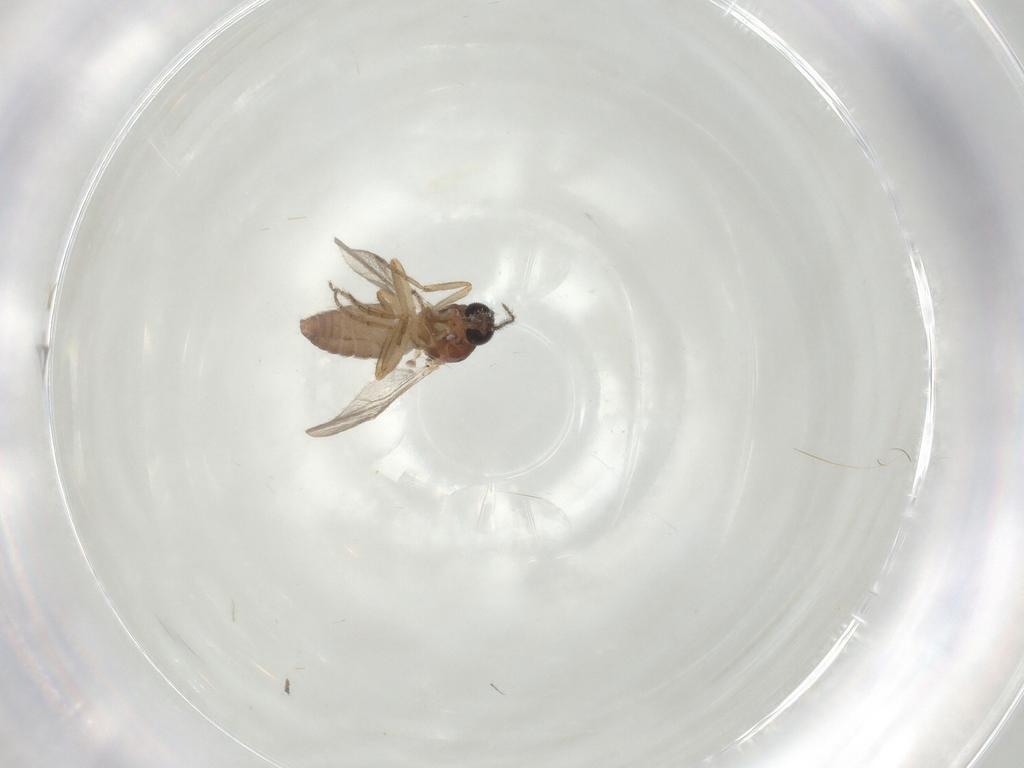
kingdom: Animalia
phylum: Arthropoda
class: Insecta
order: Diptera
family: Ceratopogonidae
